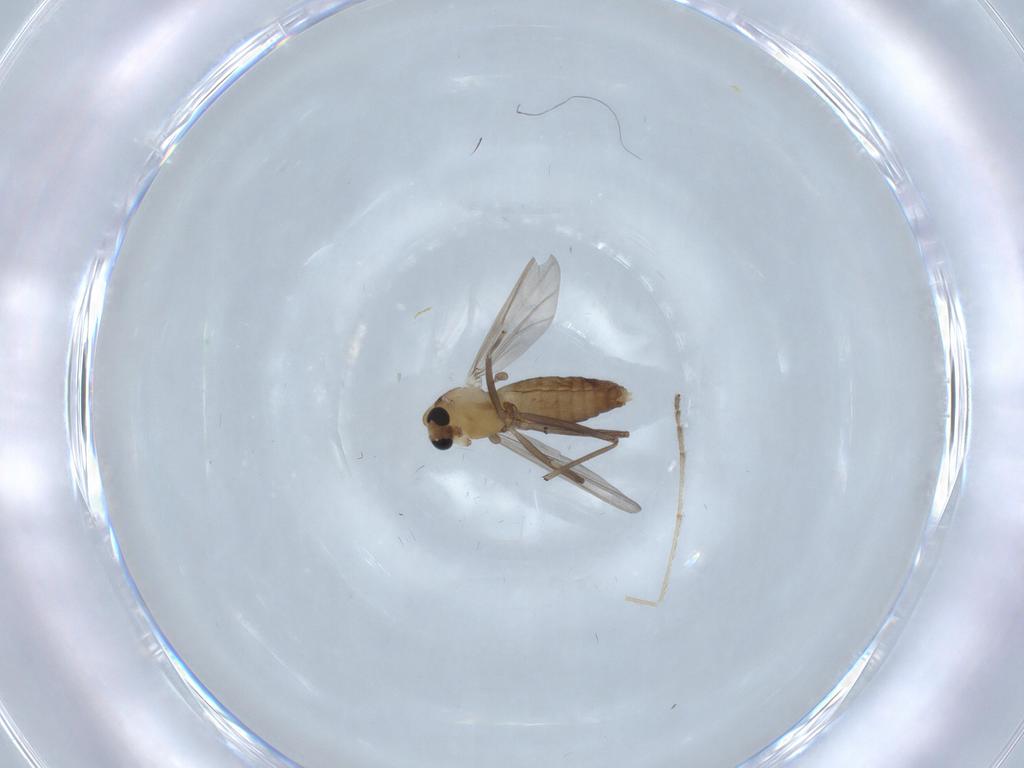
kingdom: Animalia
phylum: Arthropoda
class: Insecta
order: Diptera
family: Chironomidae
